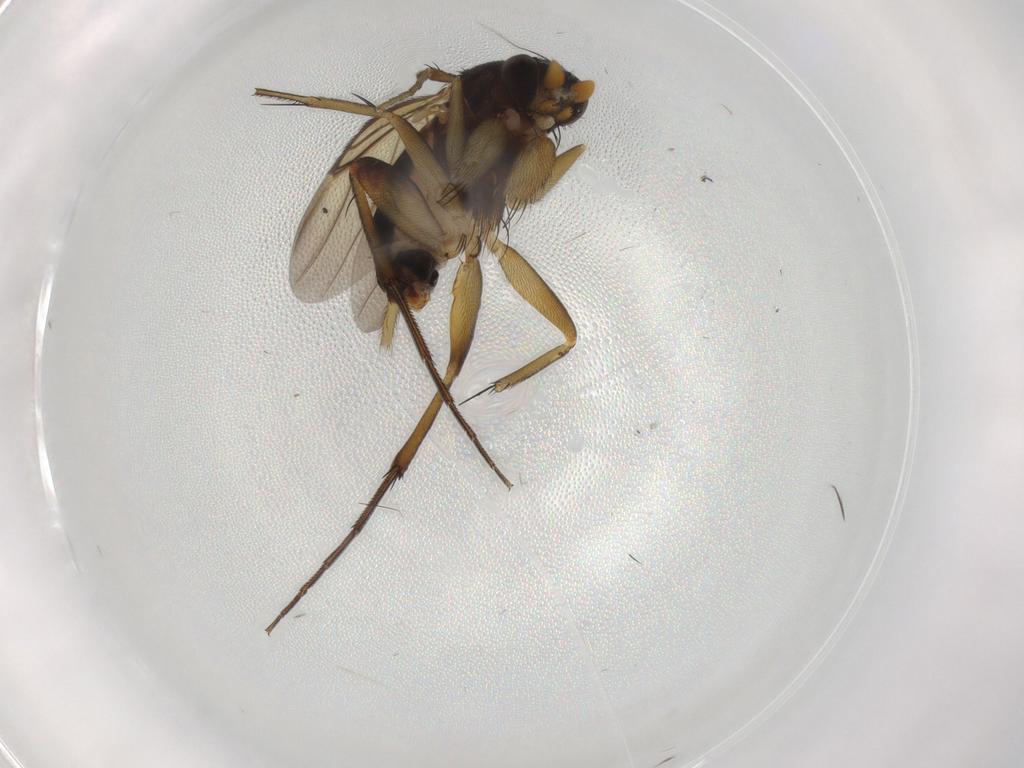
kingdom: Animalia
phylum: Arthropoda
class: Insecta
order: Diptera
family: Phoridae
